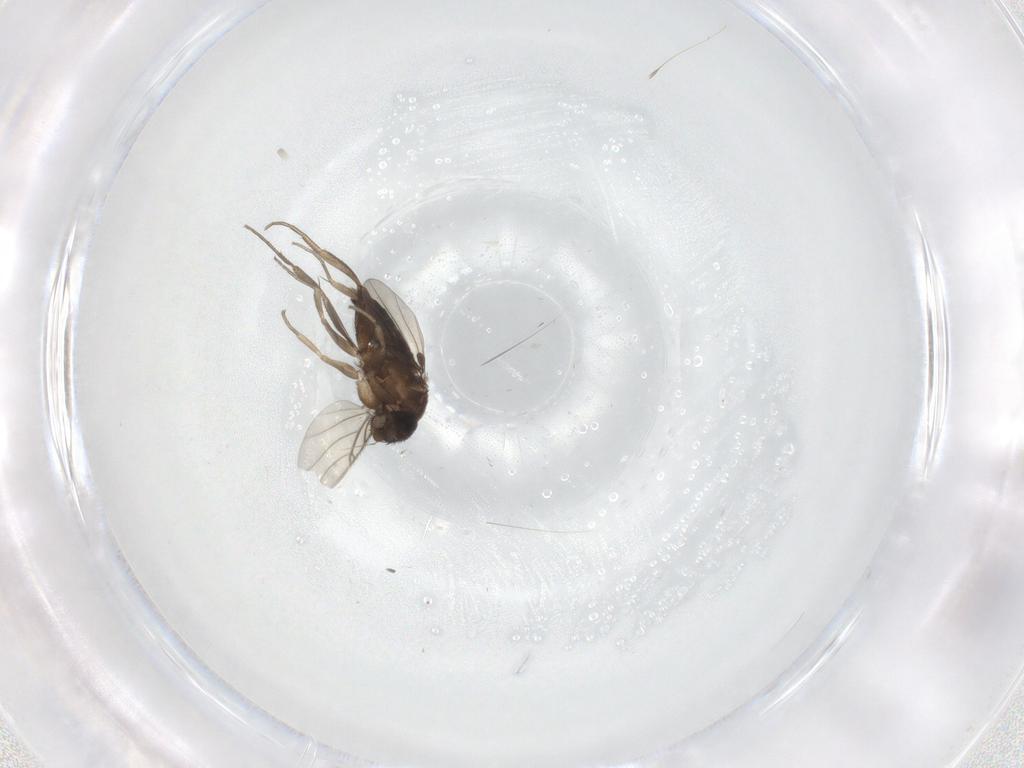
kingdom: Animalia
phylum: Arthropoda
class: Insecta
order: Diptera
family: Phoridae
